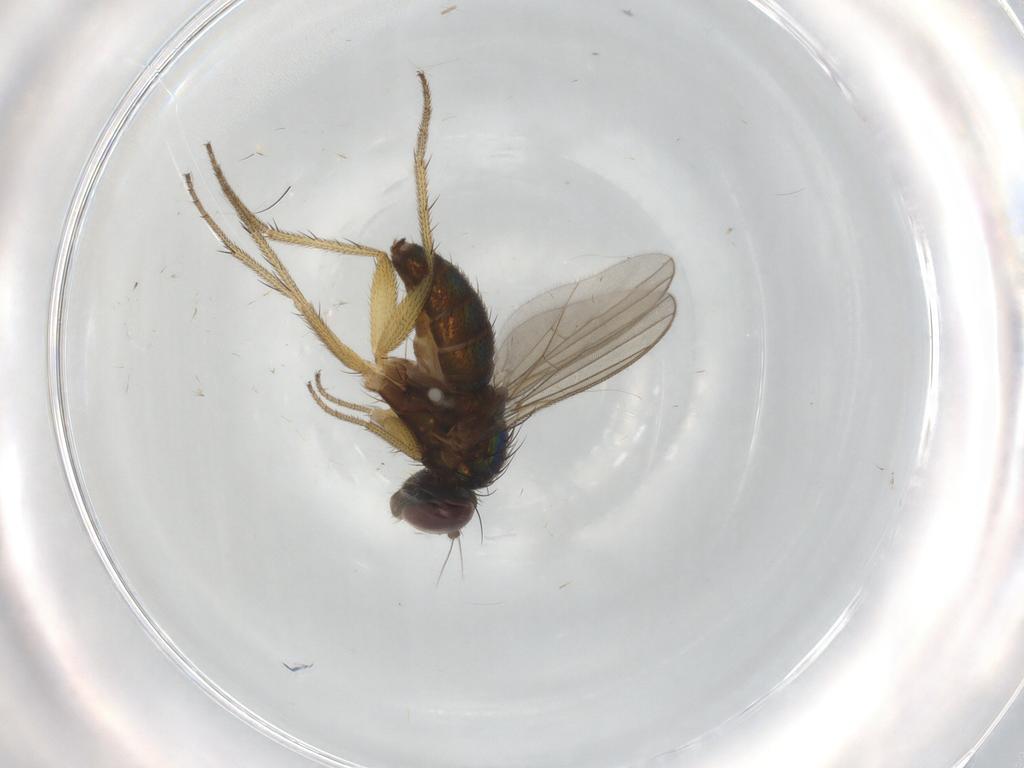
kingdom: Animalia
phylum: Arthropoda
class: Insecta
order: Diptera
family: Dolichopodidae
